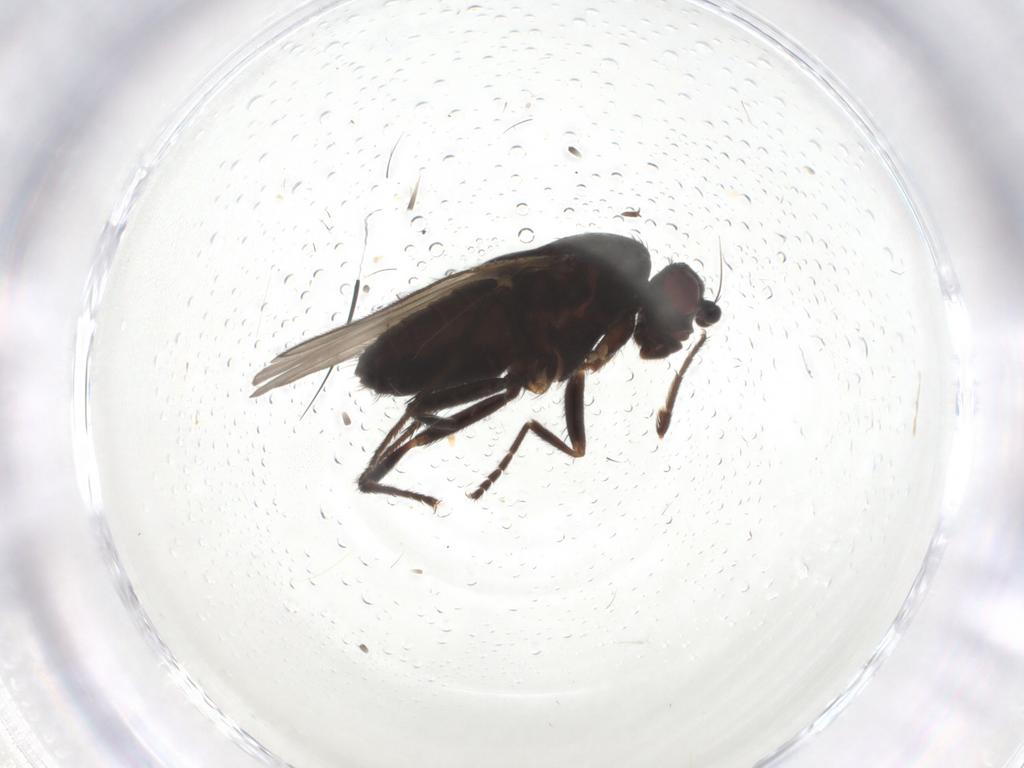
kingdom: Animalia
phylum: Arthropoda
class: Insecta
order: Diptera
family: Sphaeroceridae
